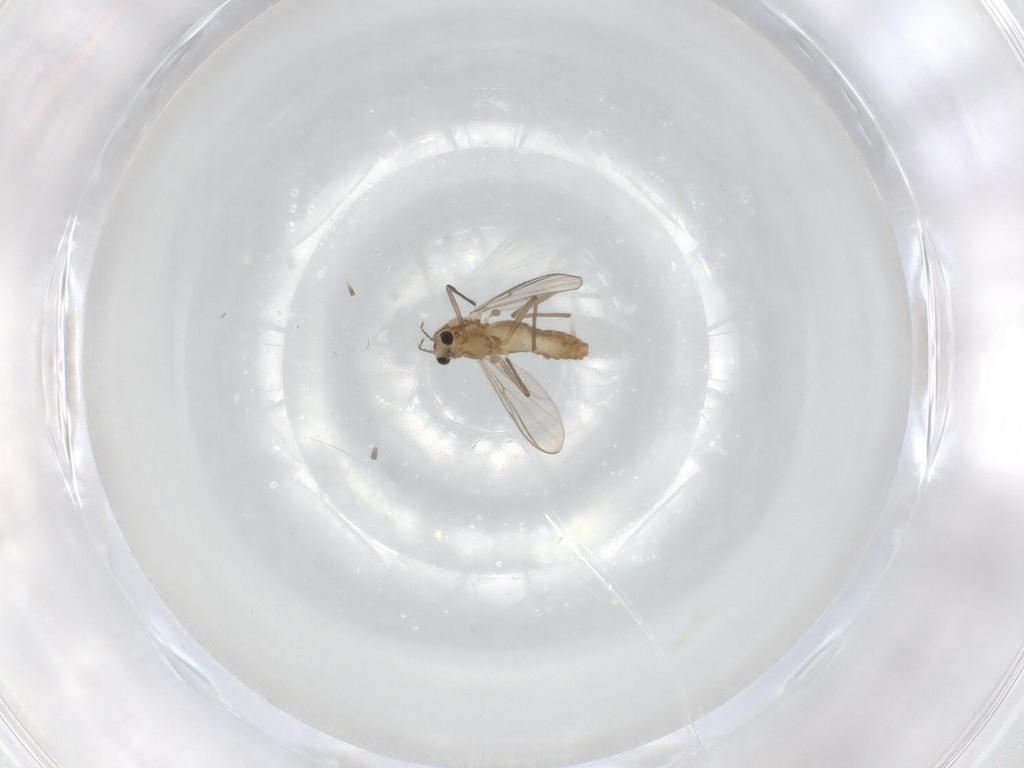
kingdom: Animalia
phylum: Arthropoda
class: Insecta
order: Diptera
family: Chironomidae
